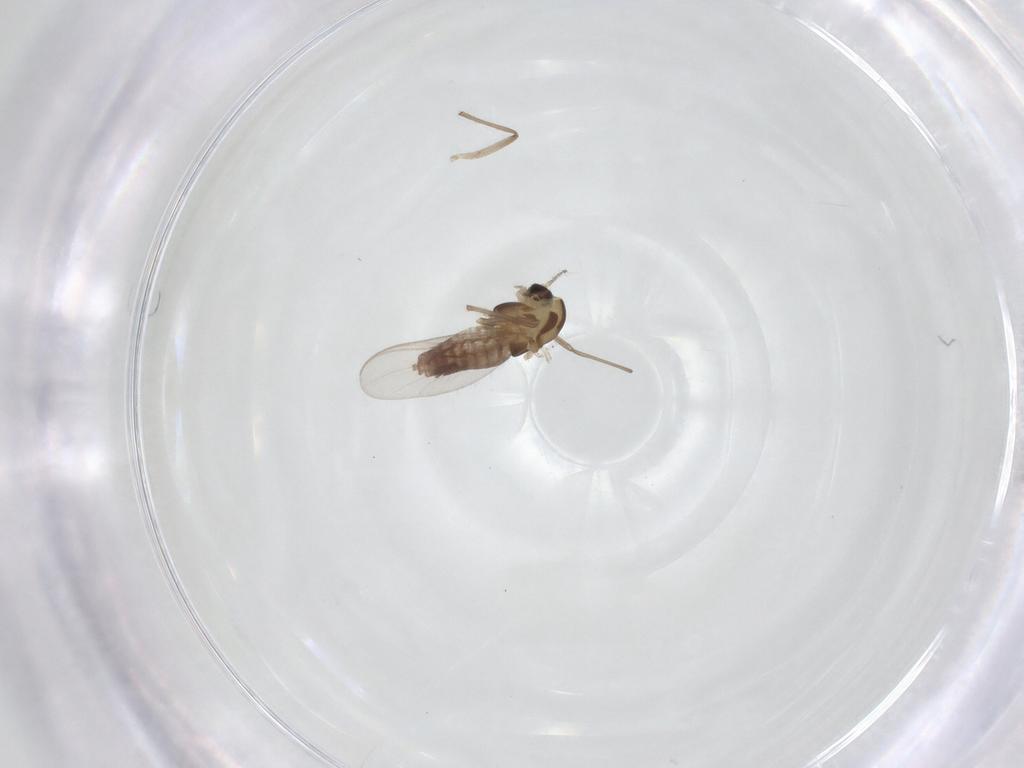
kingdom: Animalia
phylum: Arthropoda
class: Insecta
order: Diptera
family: Chironomidae
